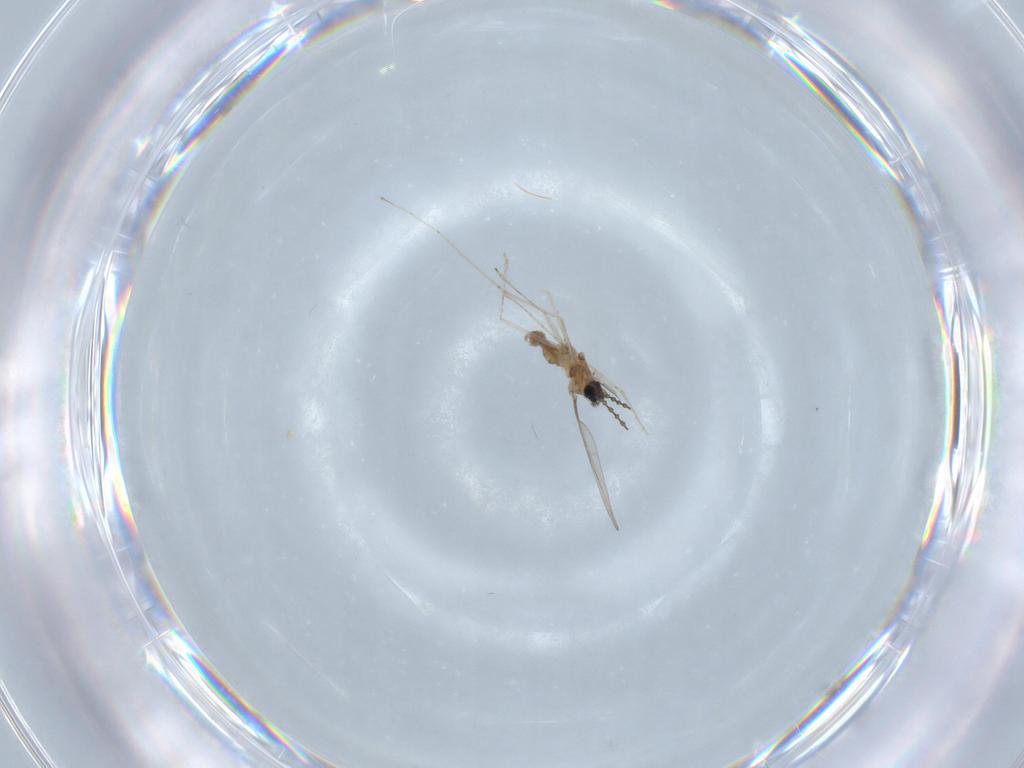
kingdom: Animalia
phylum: Arthropoda
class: Insecta
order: Diptera
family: Cecidomyiidae
